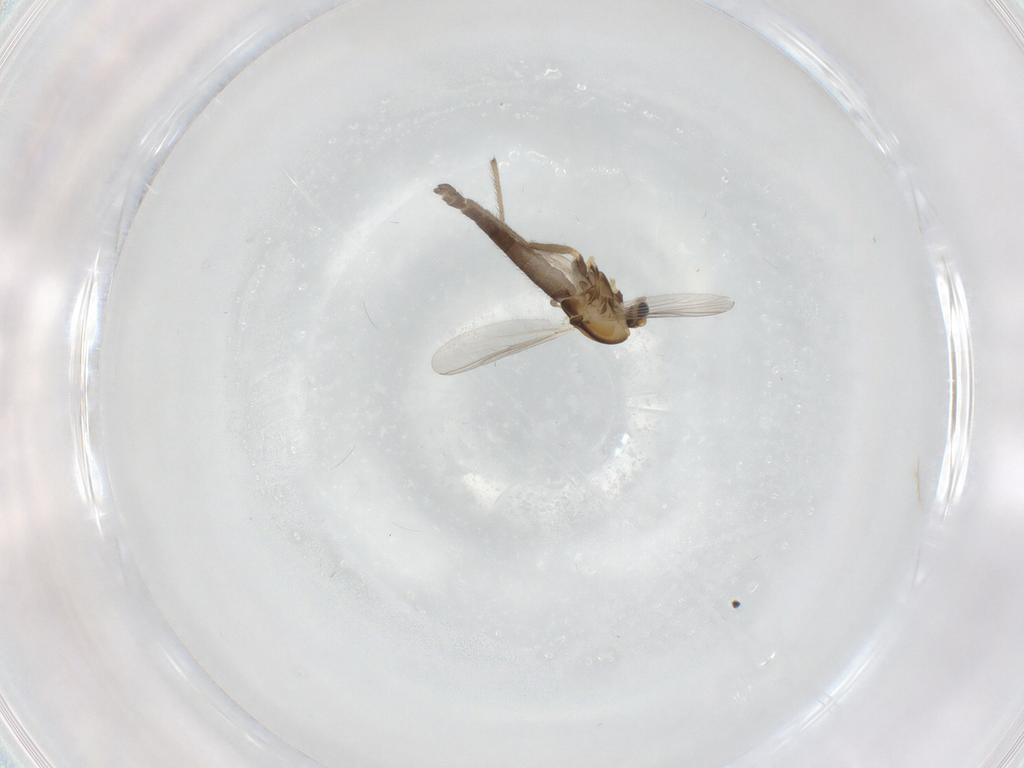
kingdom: Animalia
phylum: Arthropoda
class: Insecta
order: Diptera
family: Chironomidae
